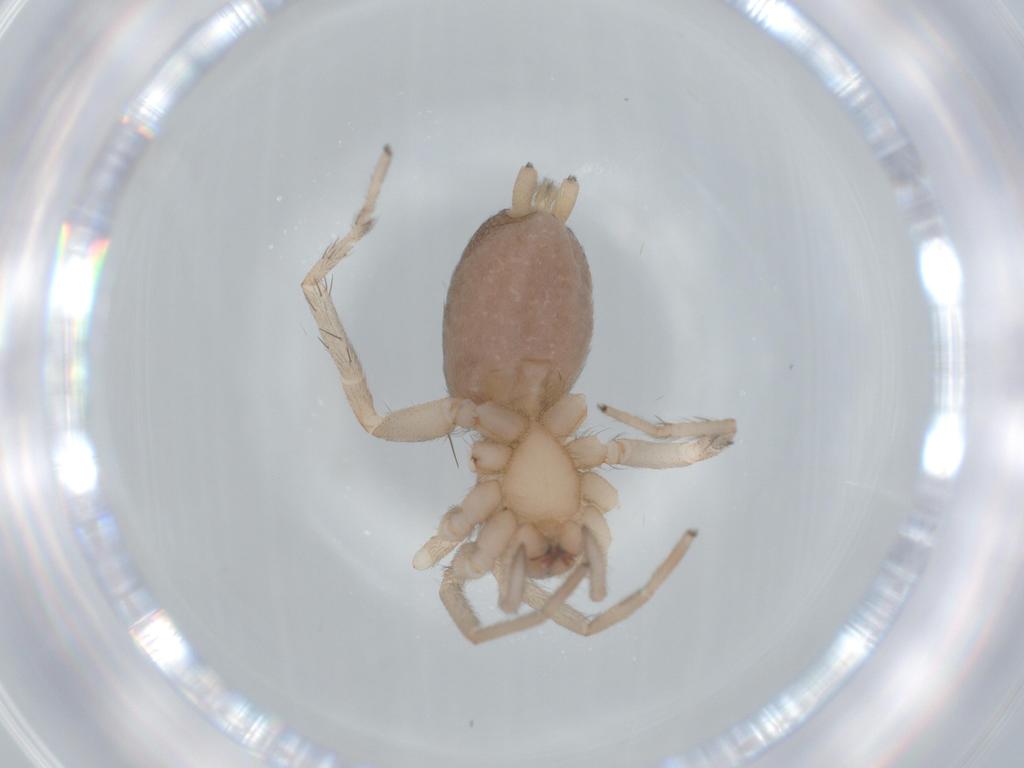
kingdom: Animalia
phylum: Arthropoda
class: Arachnida
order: Araneae
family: Gnaphosidae
